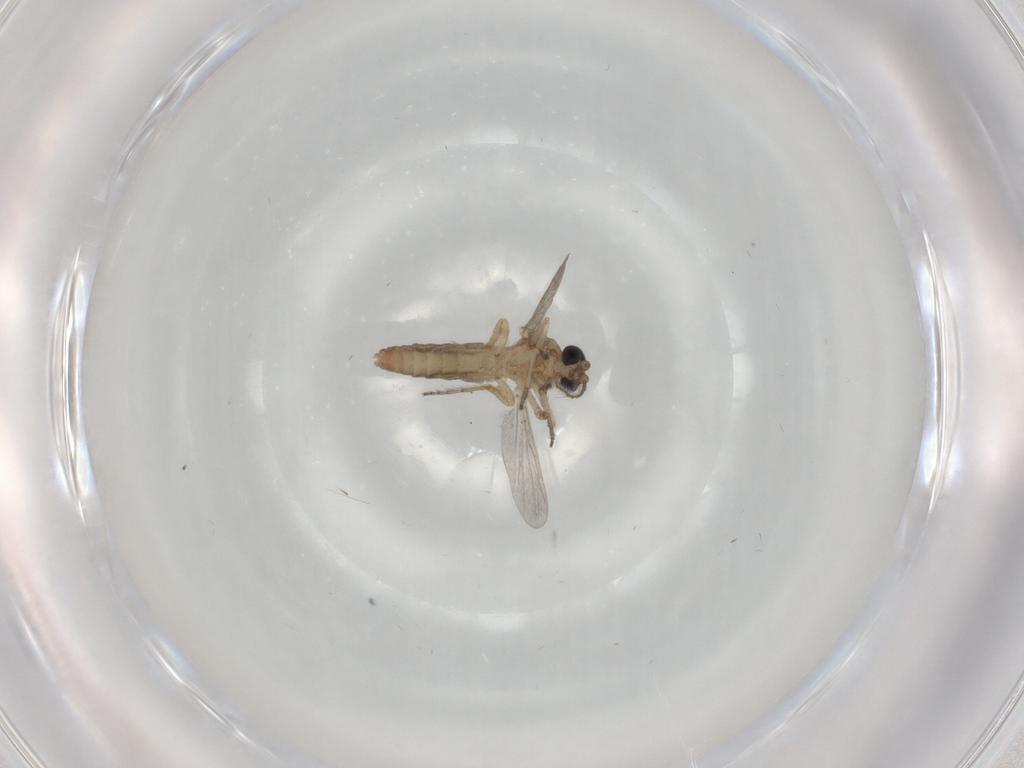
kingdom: Animalia
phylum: Arthropoda
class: Insecta
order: Diptera
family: Ceratopogonidae
